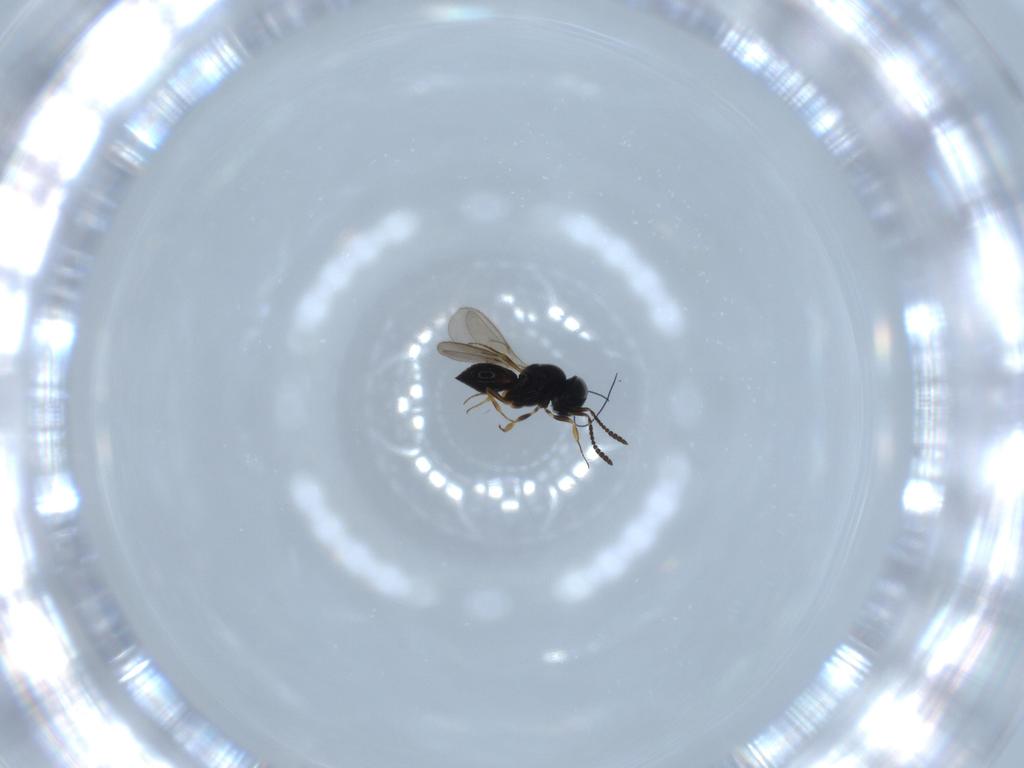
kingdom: Animalia
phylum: Arthropoda
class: Insecta
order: Hymenoptera
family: Scelionidae
